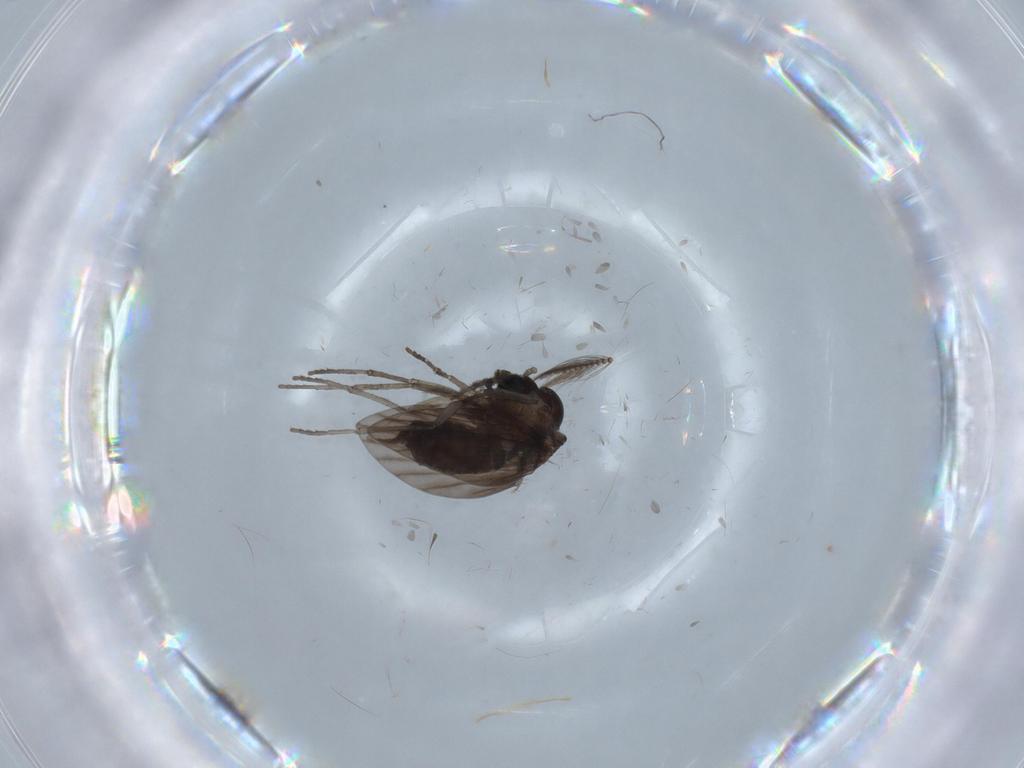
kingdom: Animalia
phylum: Arthropoda
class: Insecta
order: Diptera
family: Psychodidae
